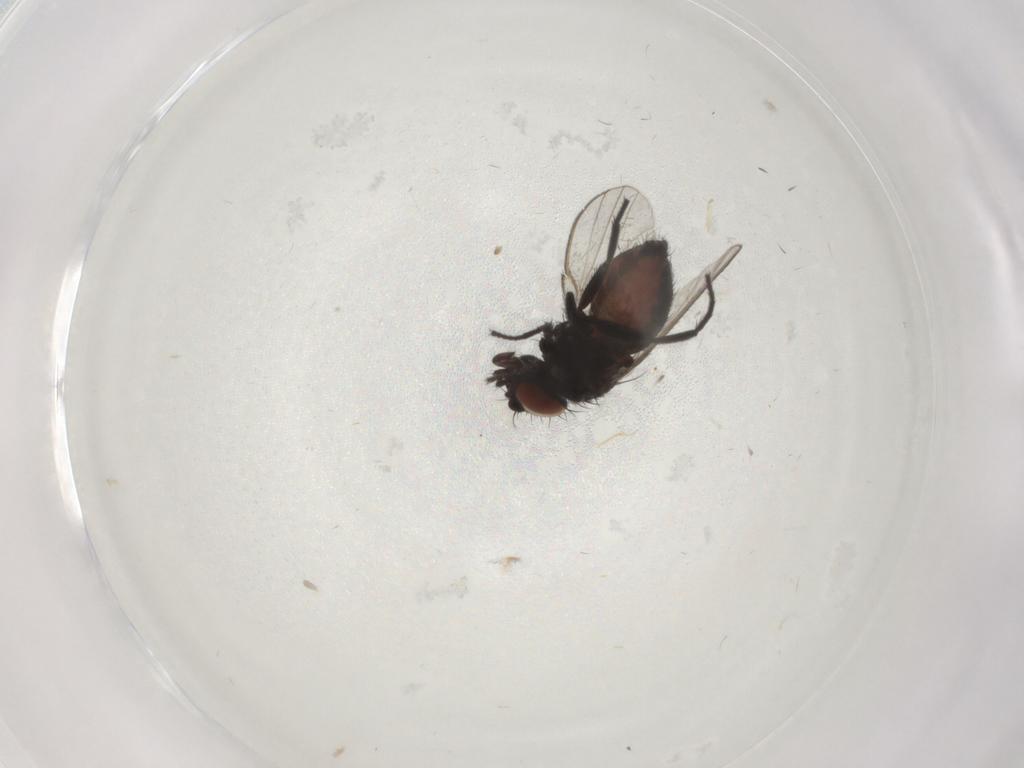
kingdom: Animalia
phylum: Arthropoda
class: Insecta
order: Diptera
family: Milichiidae
